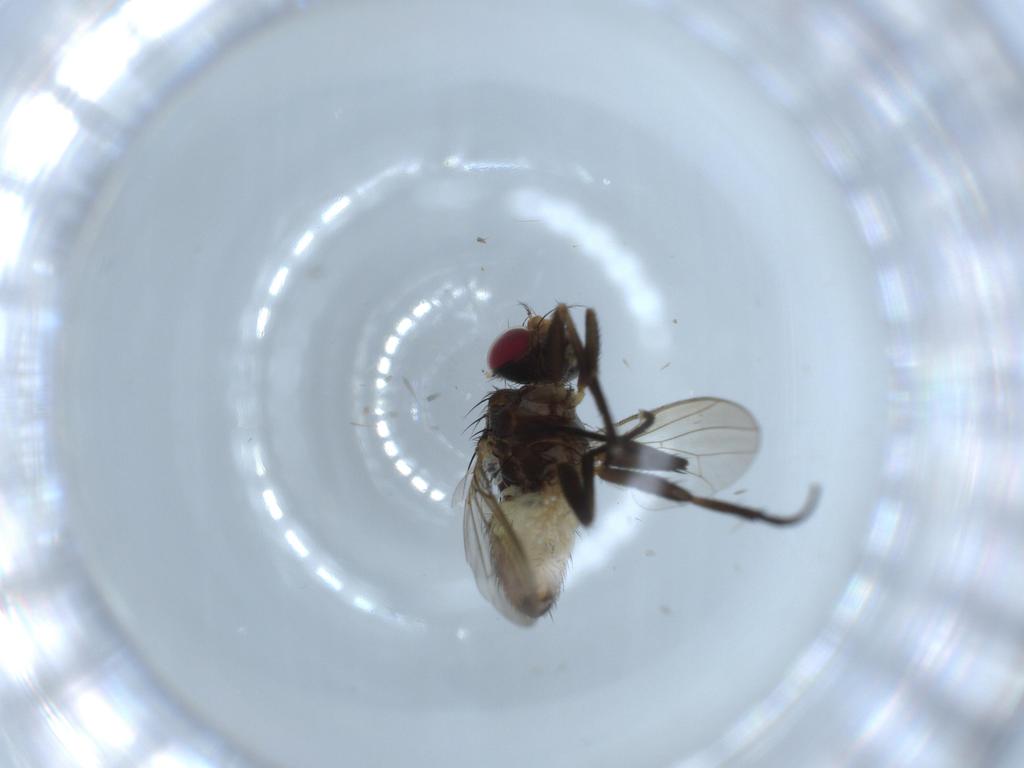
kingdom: Animalia
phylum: Arthropoda
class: Insecta
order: Diptera
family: Anthomyiidae
